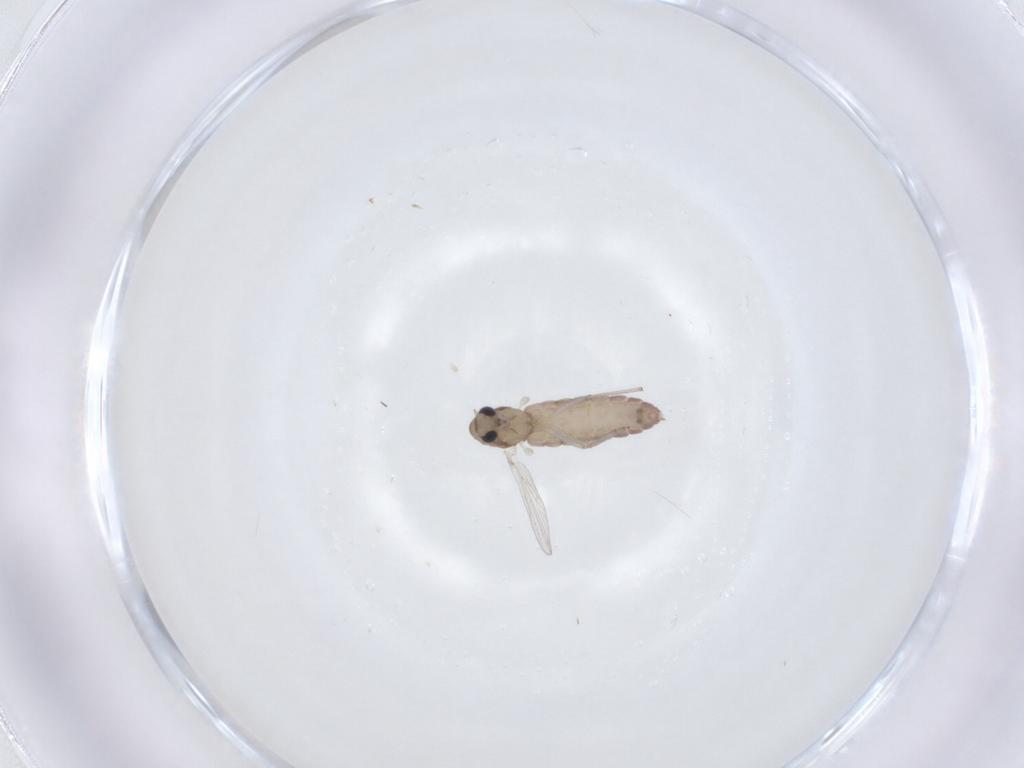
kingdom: Animalia
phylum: Arthropoda
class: Insecta
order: Diptera
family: Chironomidae
